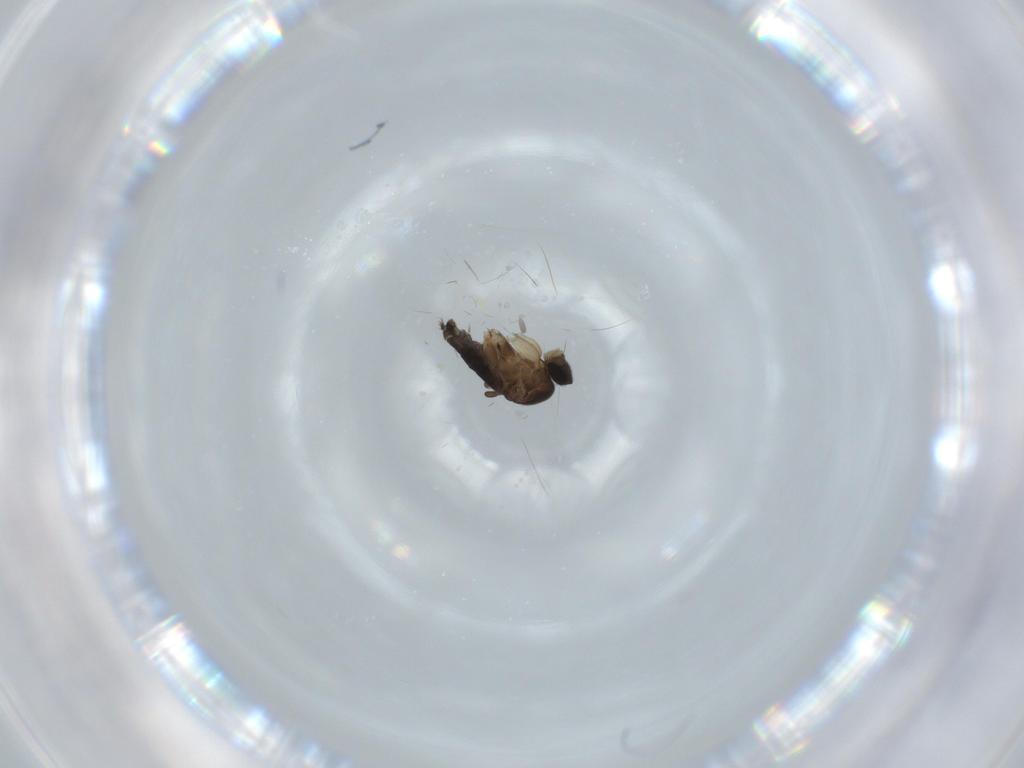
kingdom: Animalia
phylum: Arthropoda
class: Insecta
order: Diptera
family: Phoridae
